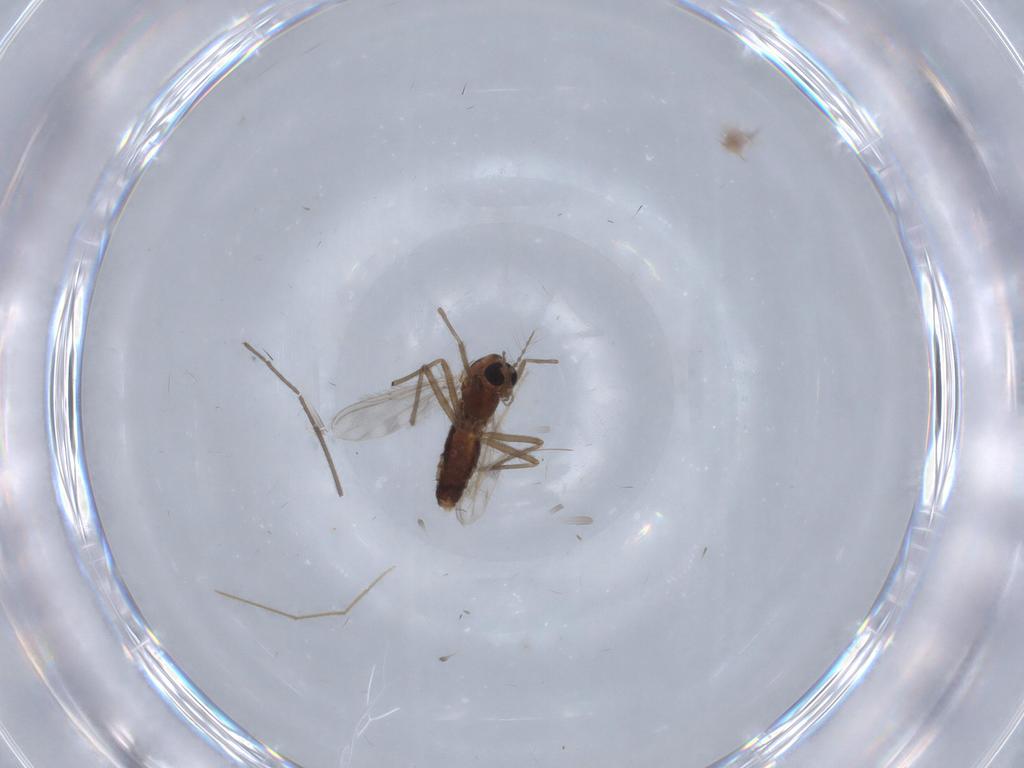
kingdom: Animalia
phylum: Arthropoda
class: Insecta
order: Diptera
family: Chironomidae
